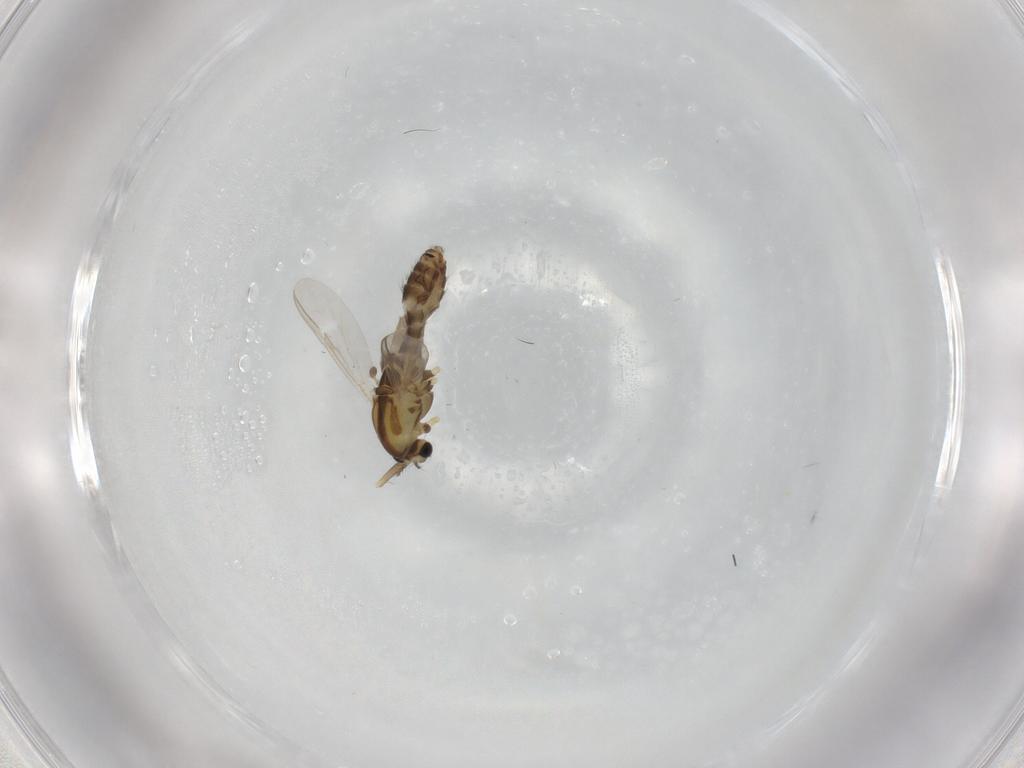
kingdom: Animalia
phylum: Arthropoda
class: Insecta
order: Diptera
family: Chironomidae
